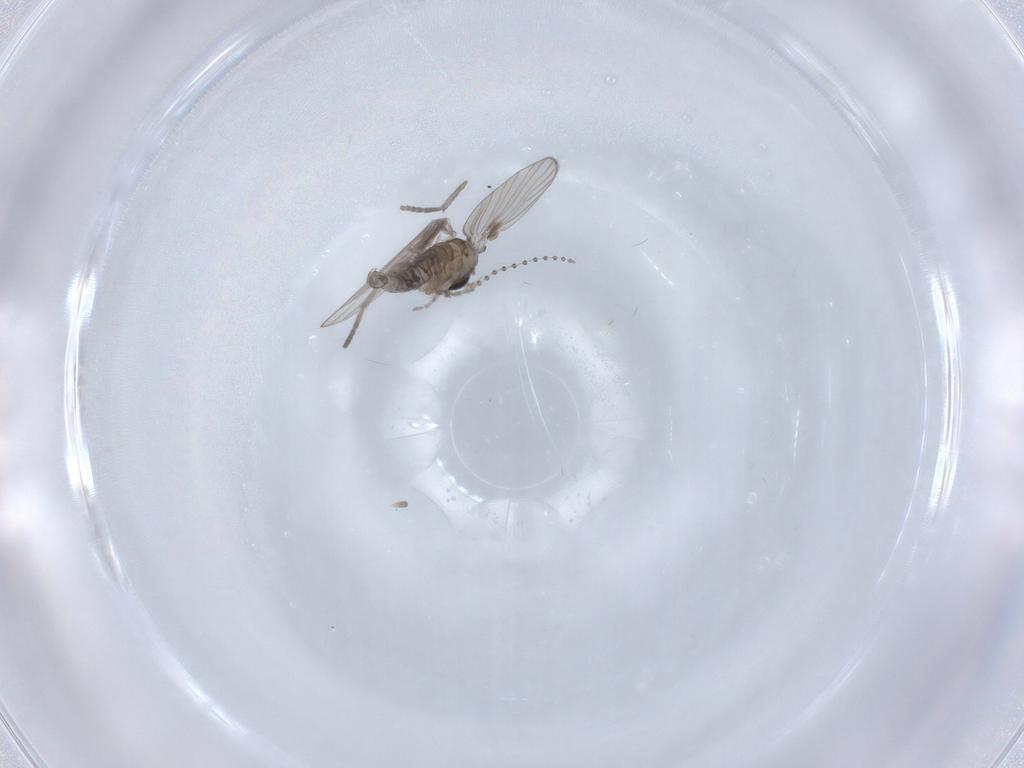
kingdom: Animalia
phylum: Arthropoda
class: Insecta
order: Diptera
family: Psychodidae
